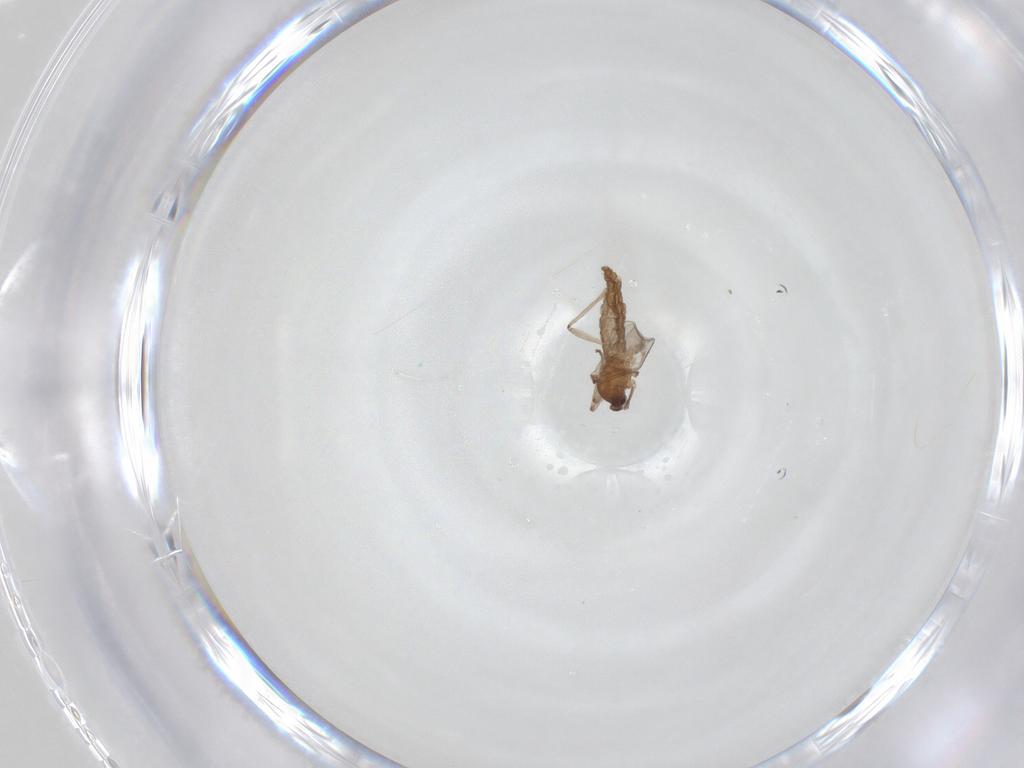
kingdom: Animalia
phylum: Arthropoda
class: Insecta
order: Diptera
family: Cecidomyiidae
